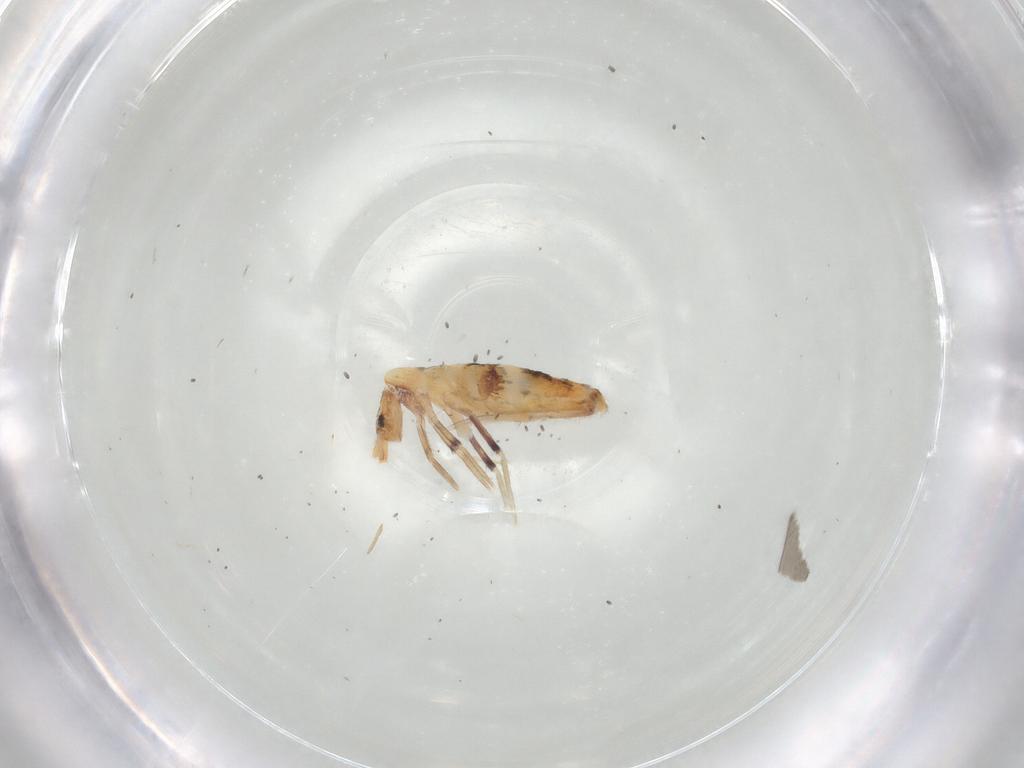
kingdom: Animalia
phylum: Arthropoda
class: Collembola
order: Entomobryomorpha
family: Entomobryidae
